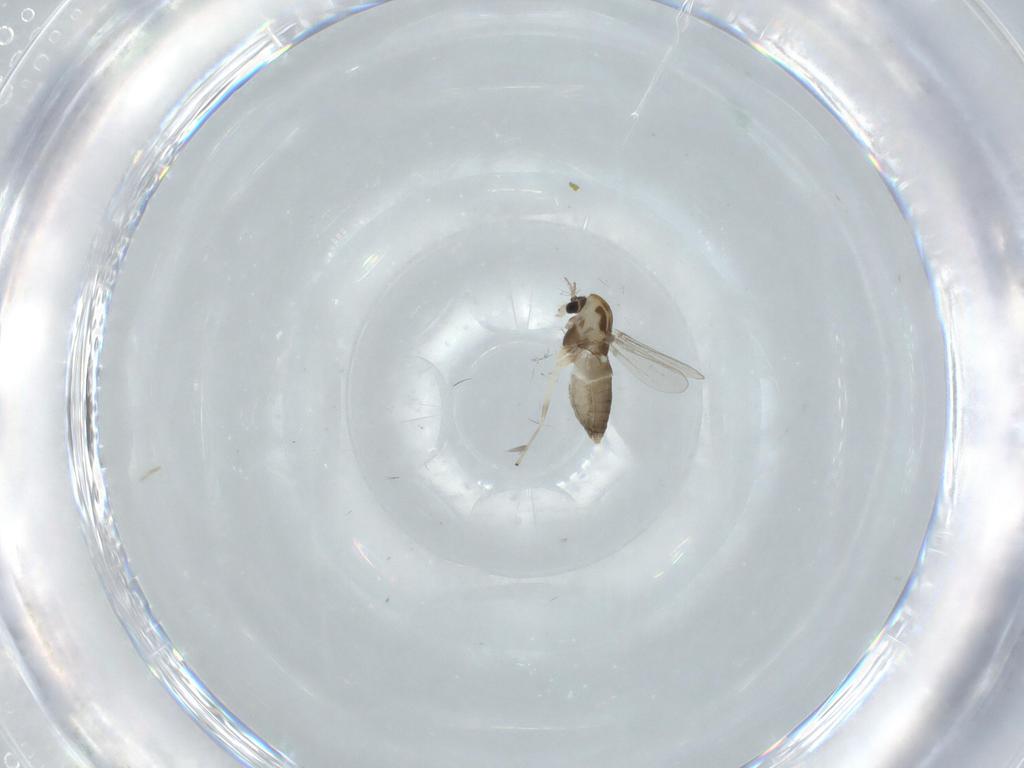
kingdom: Animalia
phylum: Arthropoda
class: Insecta
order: Diptera
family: Chironomidae
